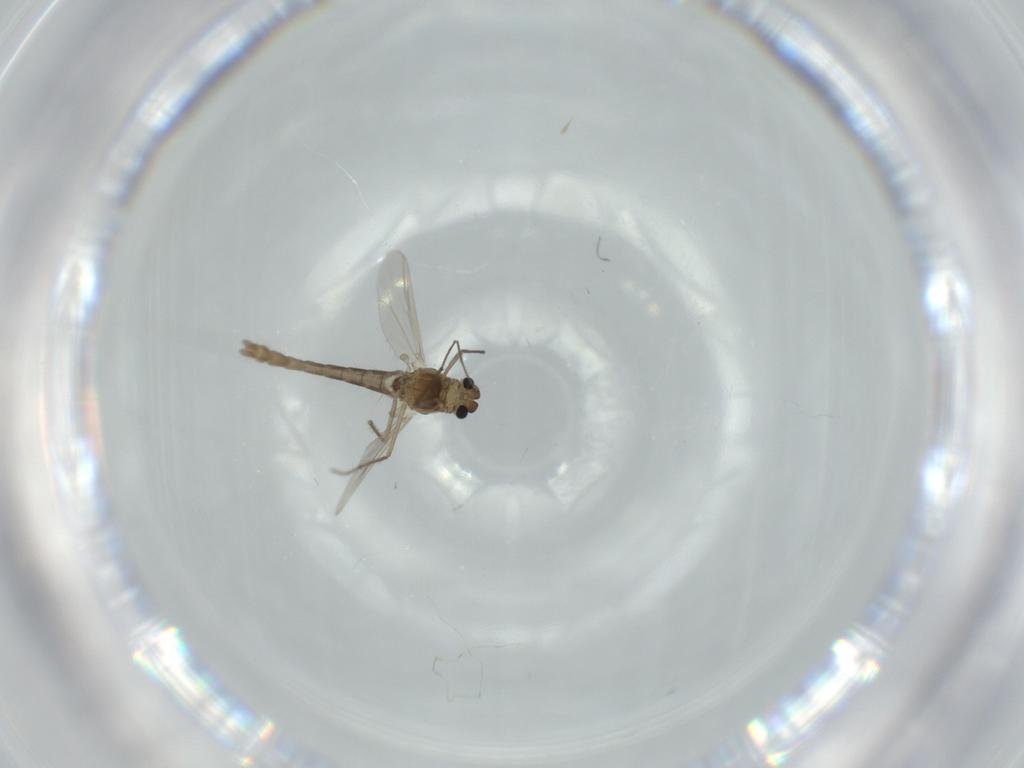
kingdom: Animalia
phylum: Arthropoda
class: Insecta
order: Diptera
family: Chironomidae
